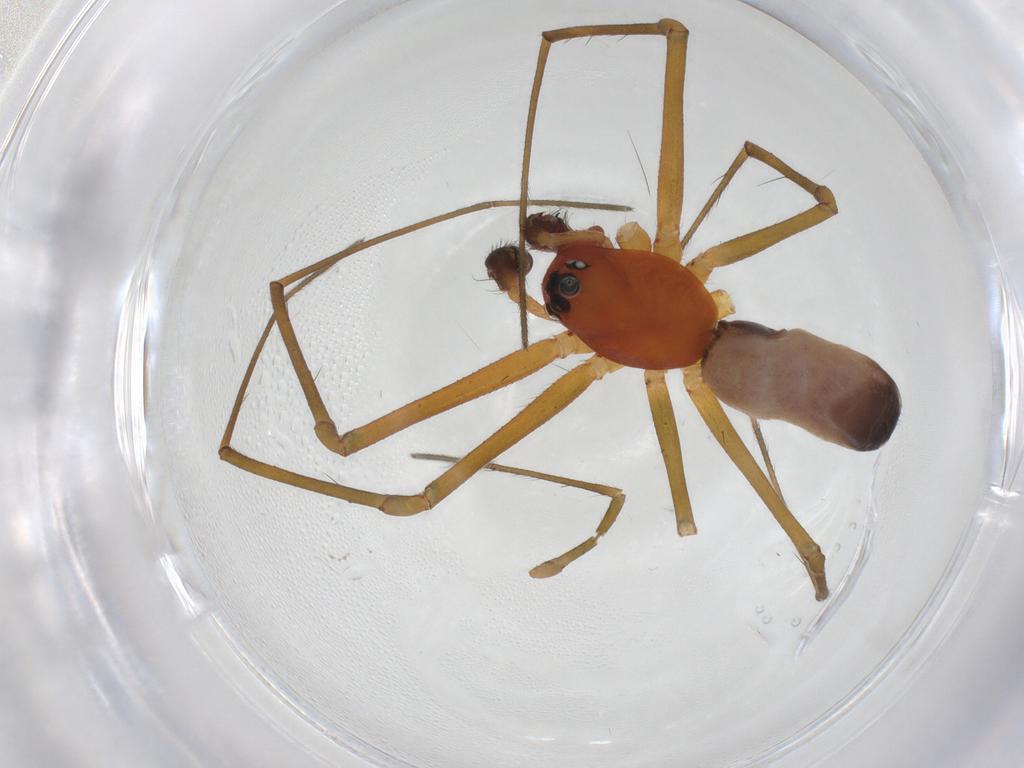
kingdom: Animalia
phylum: Arthropoda
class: Arachnida
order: Araneae
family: Linyphiidae
